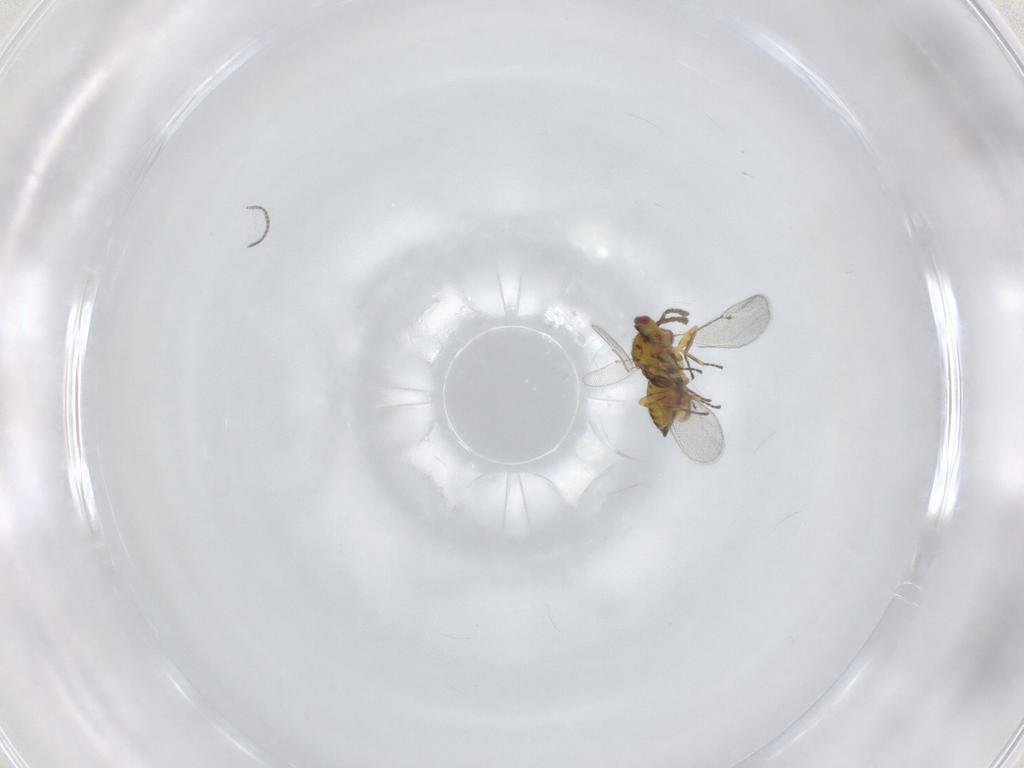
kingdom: Animalia
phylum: Arthropoda
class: Insecta
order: Hymenoptera
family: Eulophidae
